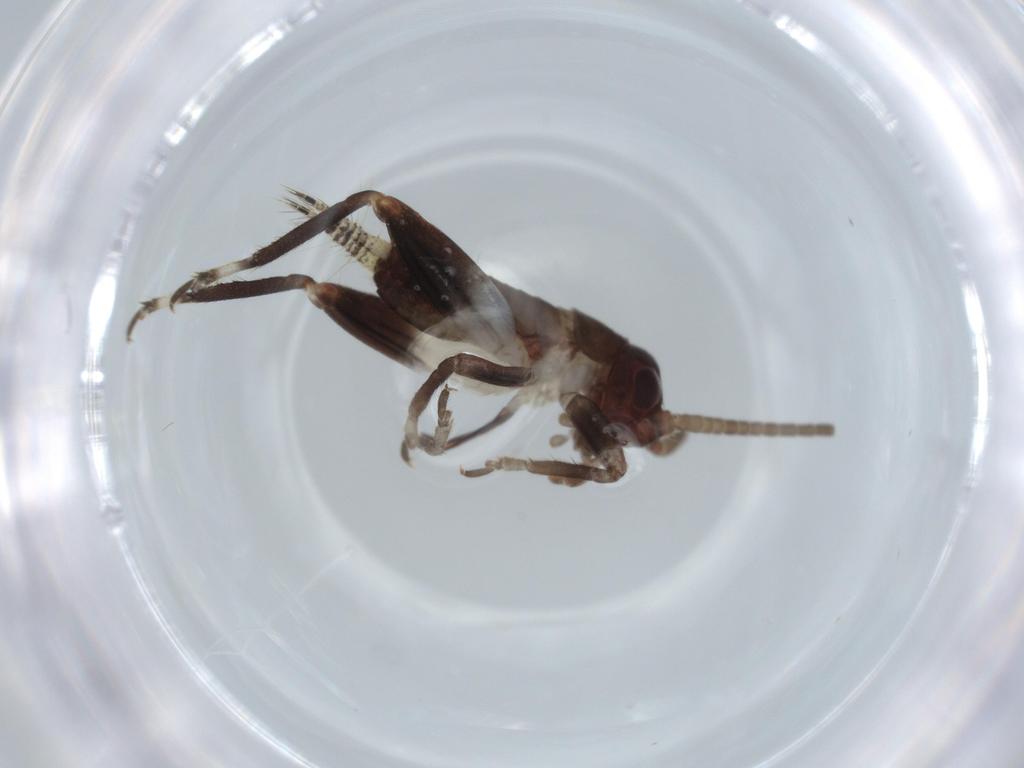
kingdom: Animalia
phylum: Arthropoda
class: Insecta
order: Orthoptera
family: Gryllidae
